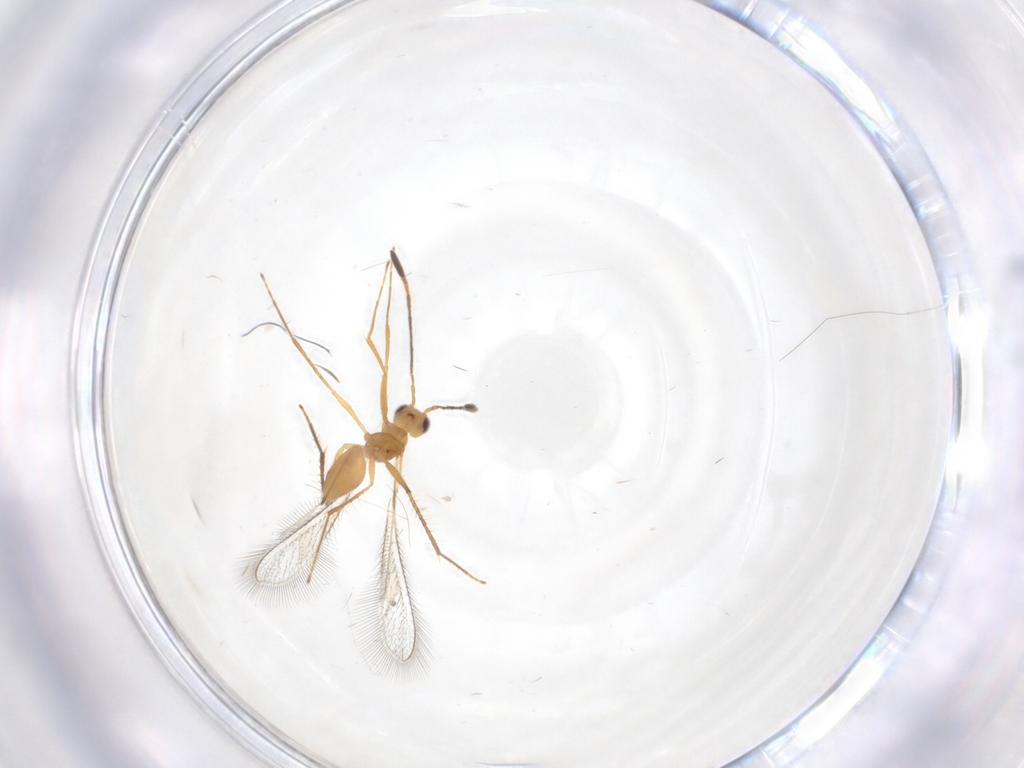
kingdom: Animalia
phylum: Arthropoda
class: Insecta
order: Hymenoptera
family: Mymaridae
